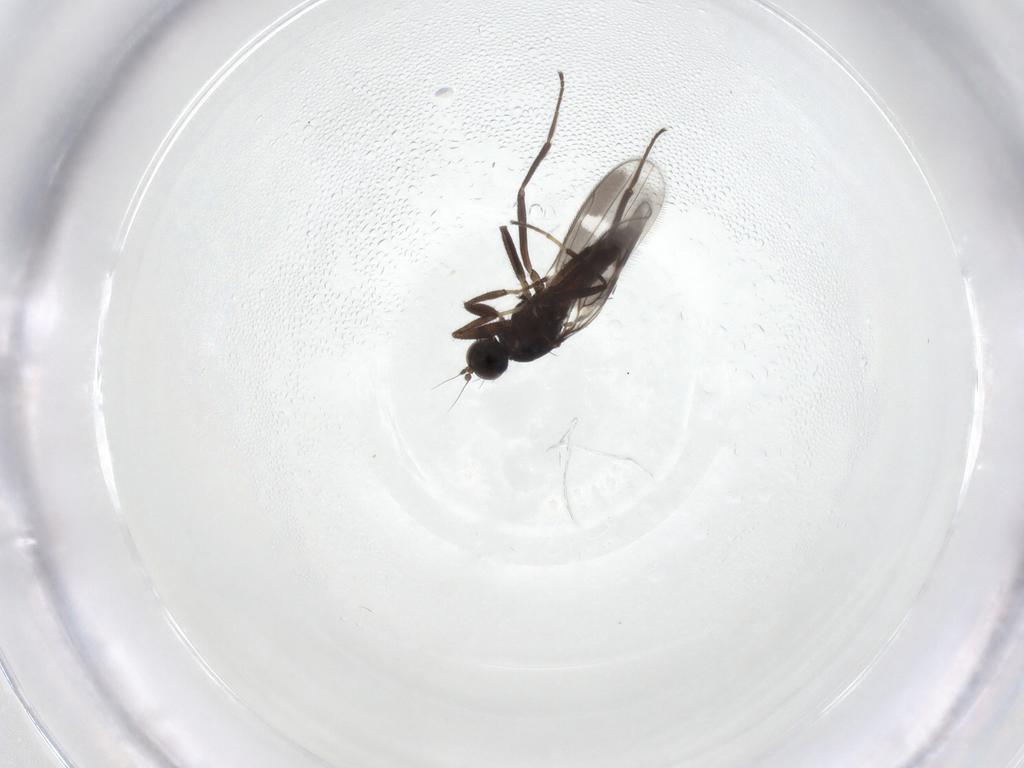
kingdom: Animalia
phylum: Arthropoda
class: Insecta
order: Diptera
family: Hybotidae
